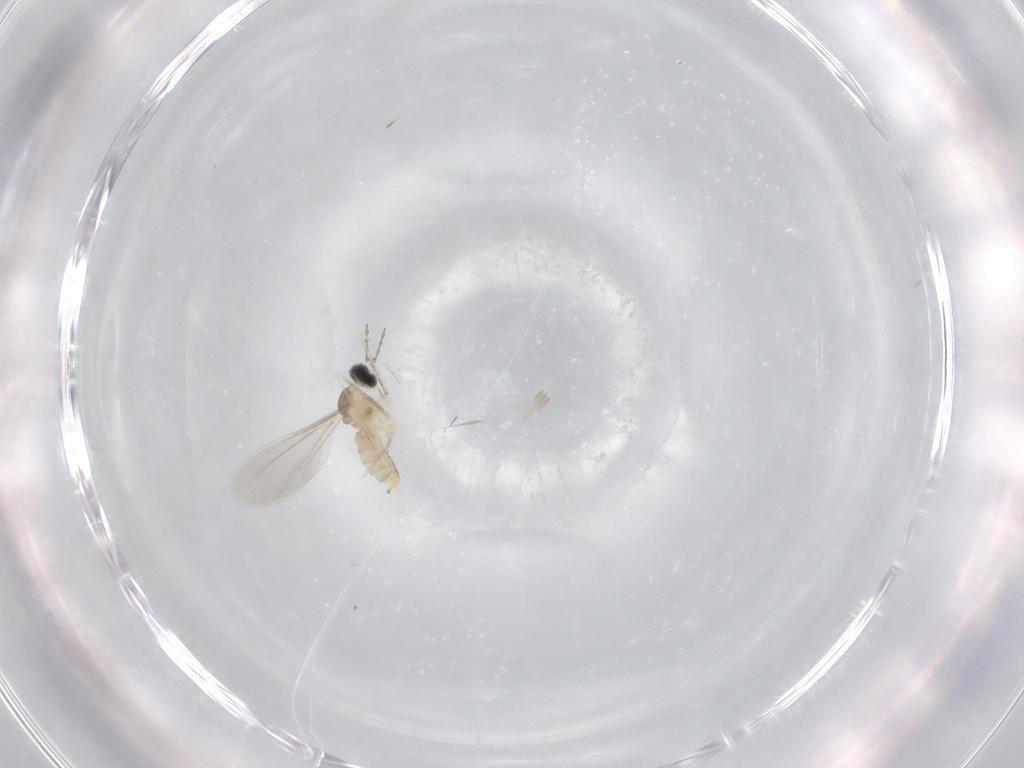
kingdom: Animalia
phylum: Arthropoda
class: Insecta
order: Diptera
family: Cecidomyiidae
